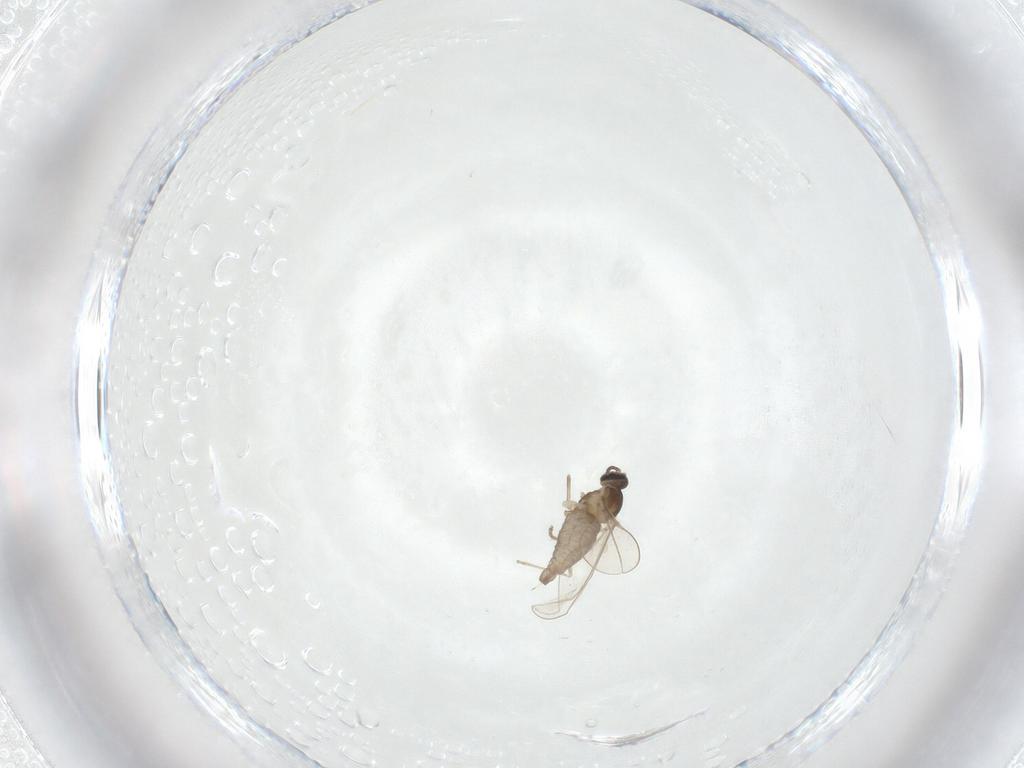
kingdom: Animalia
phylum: Arthropoda
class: Insecta
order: Diptera
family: Cecidomyiidae
